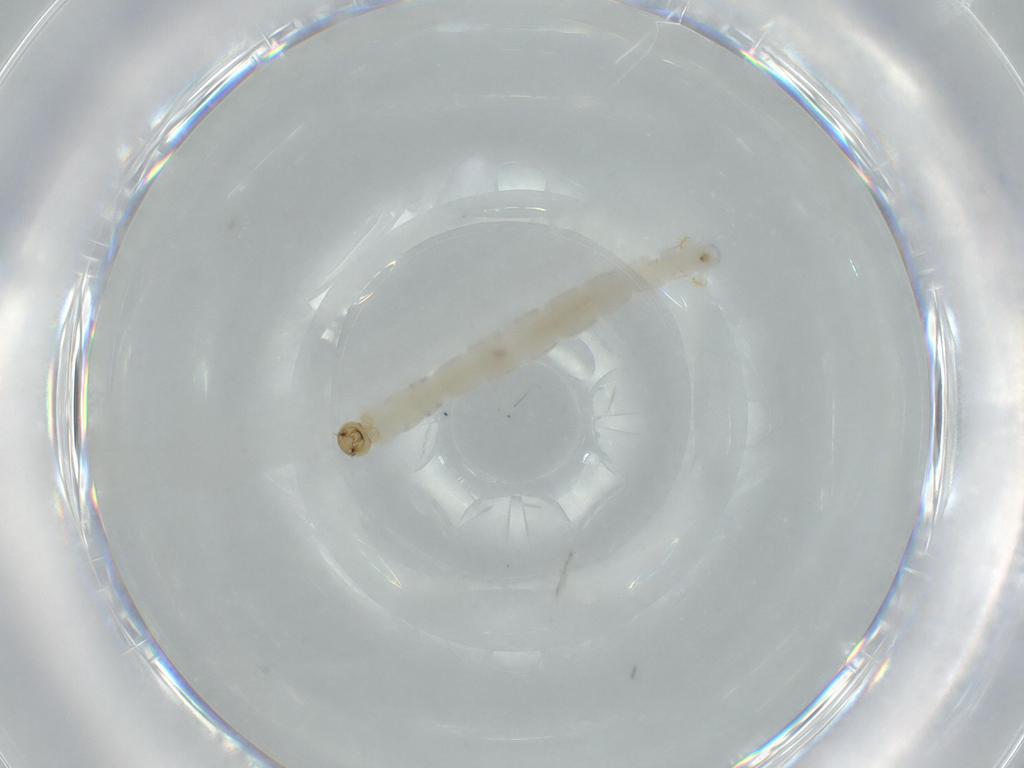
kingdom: Animalia
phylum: Arthropoda
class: Insecta
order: Diptera
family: Chironomidae
